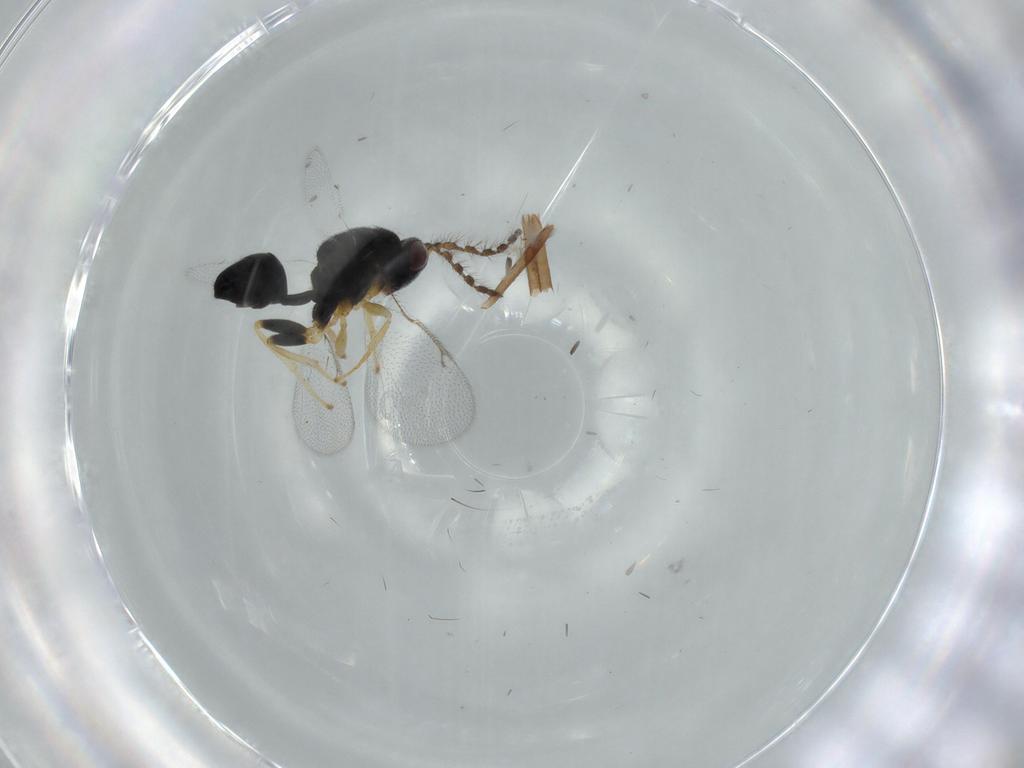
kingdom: Animalia
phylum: Arthropoda
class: Insecta
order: Hymenoptera
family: Eurytomidae
